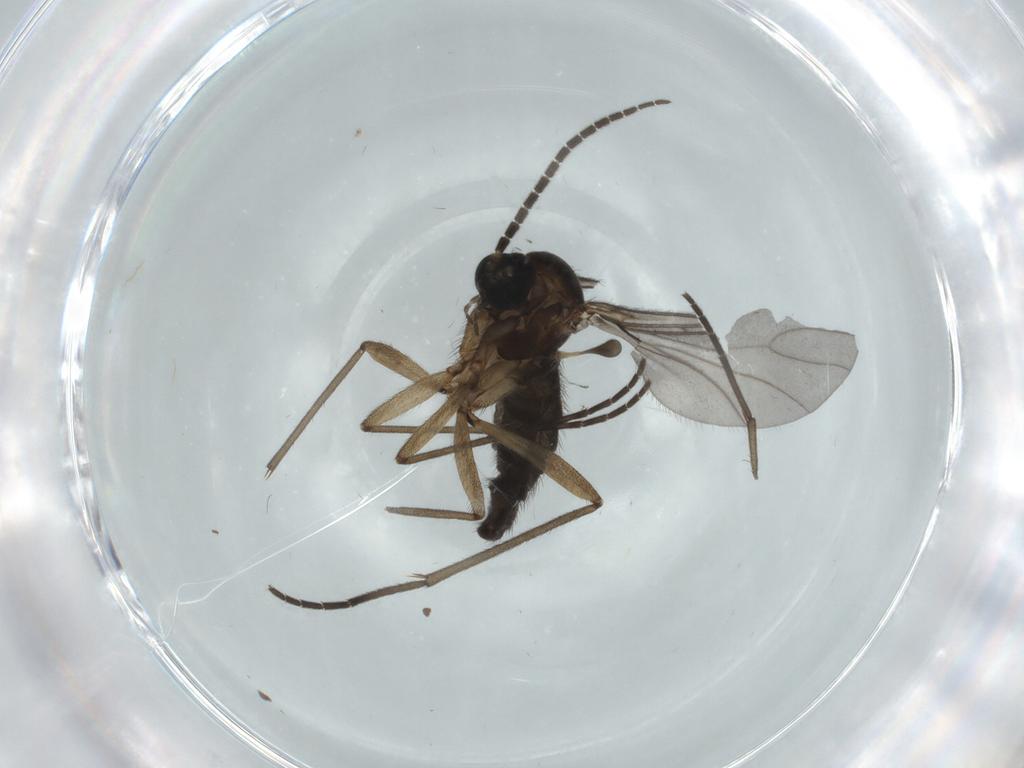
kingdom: Animalia
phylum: Arthropoda
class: Insecta
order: Diptera
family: Sciaridae
